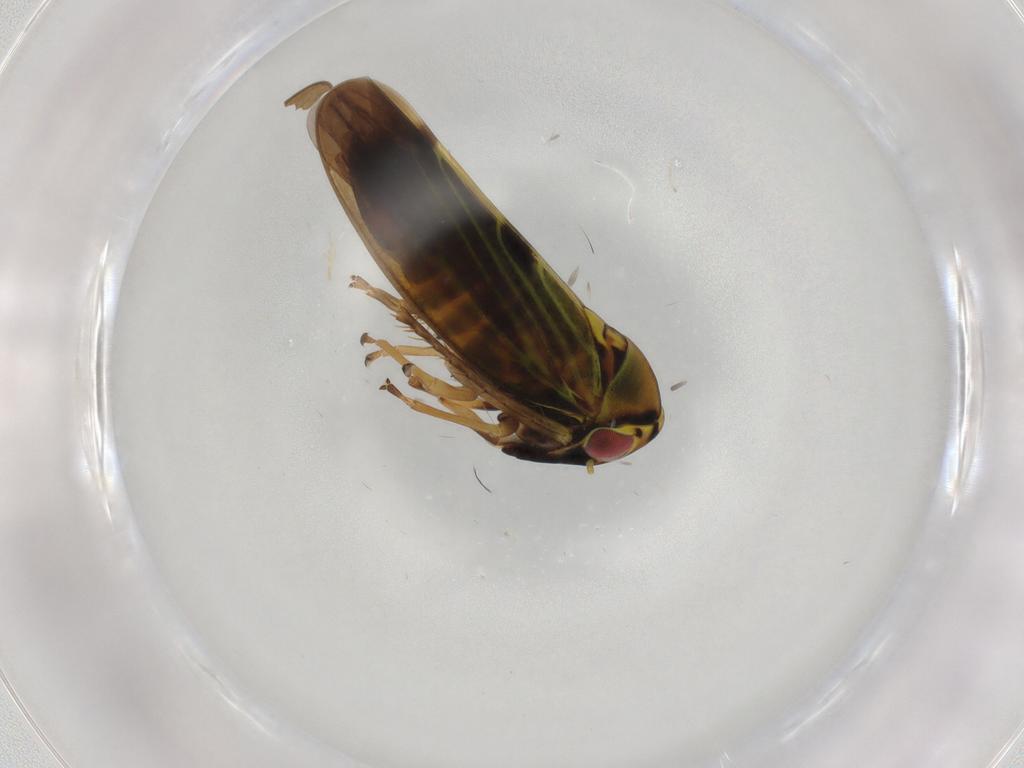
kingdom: Animalia
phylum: Arthropoda
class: Insecta
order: Hemiptera
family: Cicadellidae
